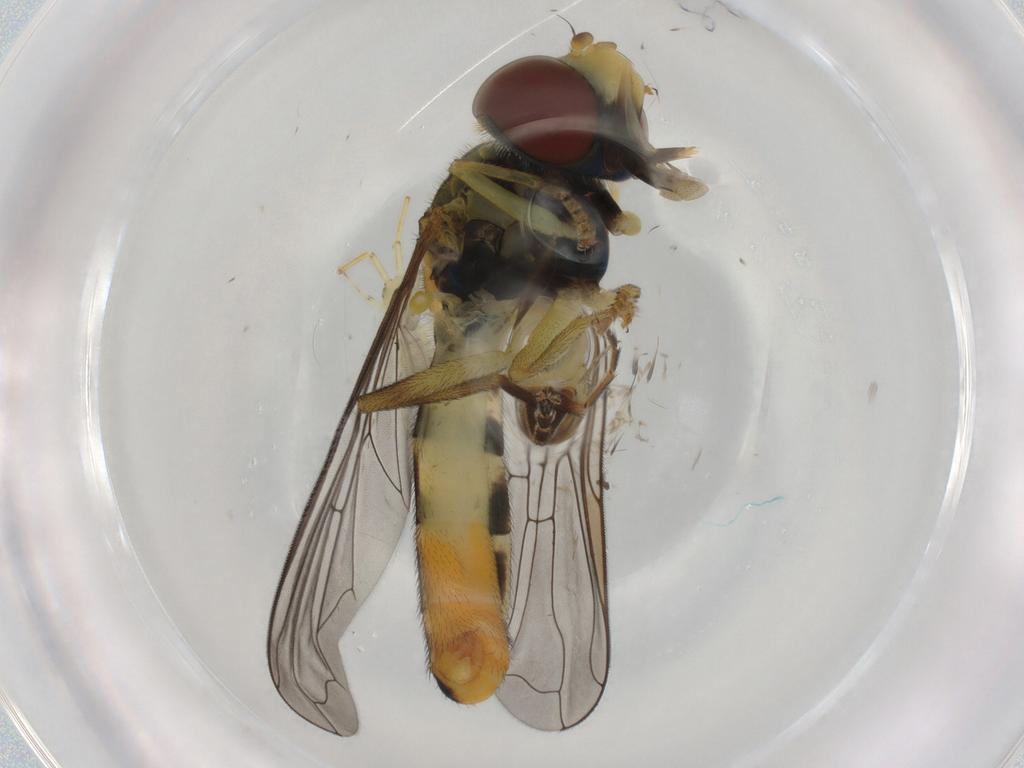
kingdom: Animalia
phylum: Arthropoda
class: Insecta
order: Diptera
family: Syrphidae
